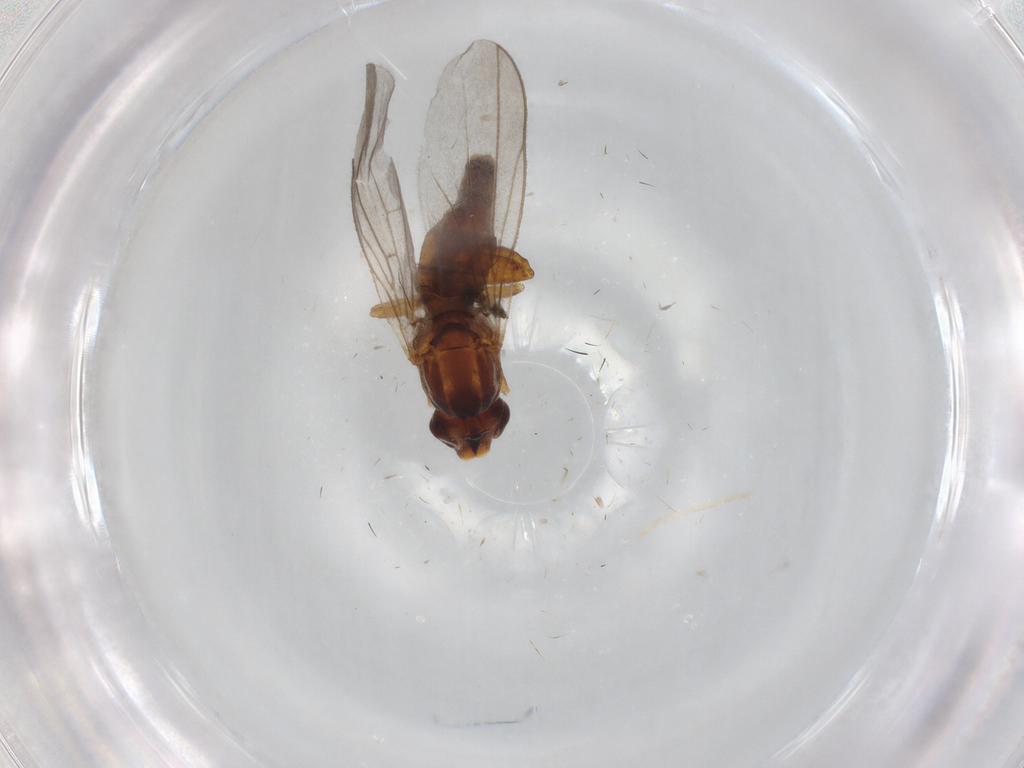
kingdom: Animalia
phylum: Arthropoda
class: Insecta
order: Diptera
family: Chloropidae
